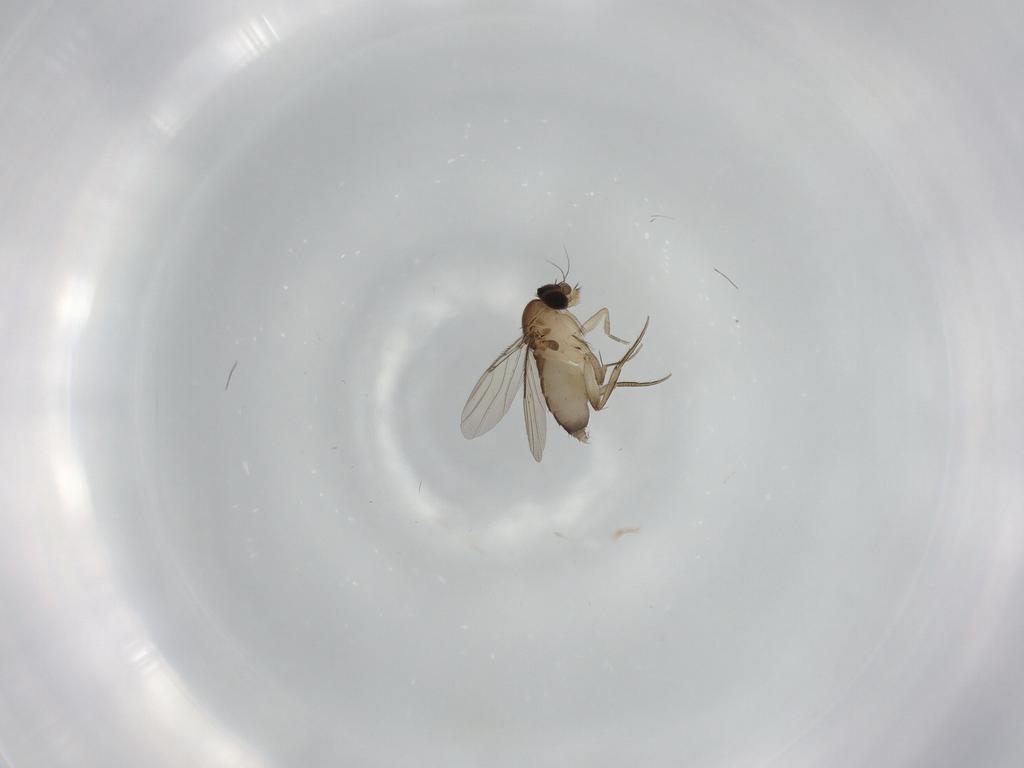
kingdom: Animalia
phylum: Arthropoda
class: Insecta
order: Diptera
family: Phoridae
